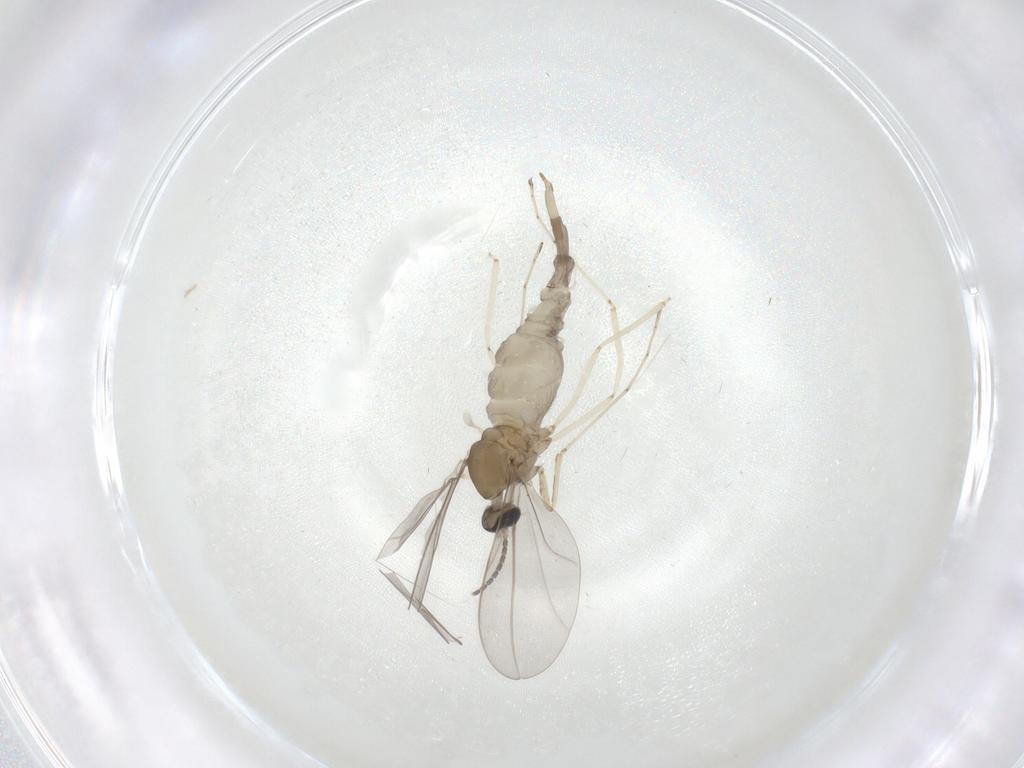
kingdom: Animalia
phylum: Arthropoda
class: Insecta
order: Diptera
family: Cecidomyiidae
